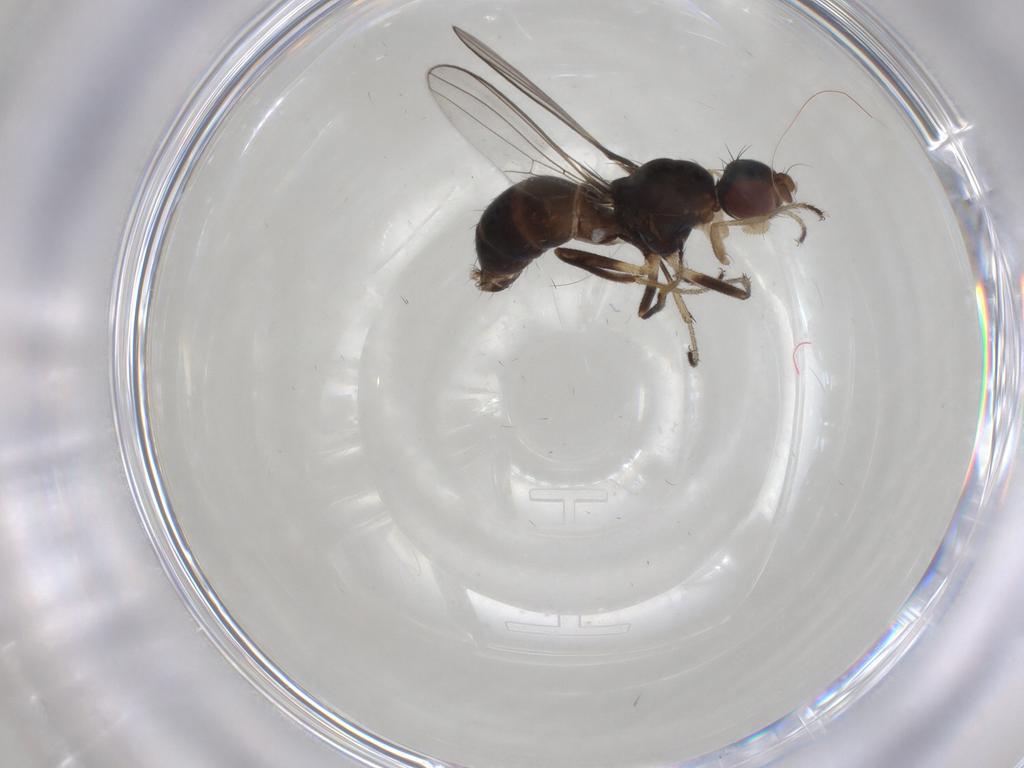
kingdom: Animalia
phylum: Arthropoda
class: Insecta
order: Diptera
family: Sepsidae
